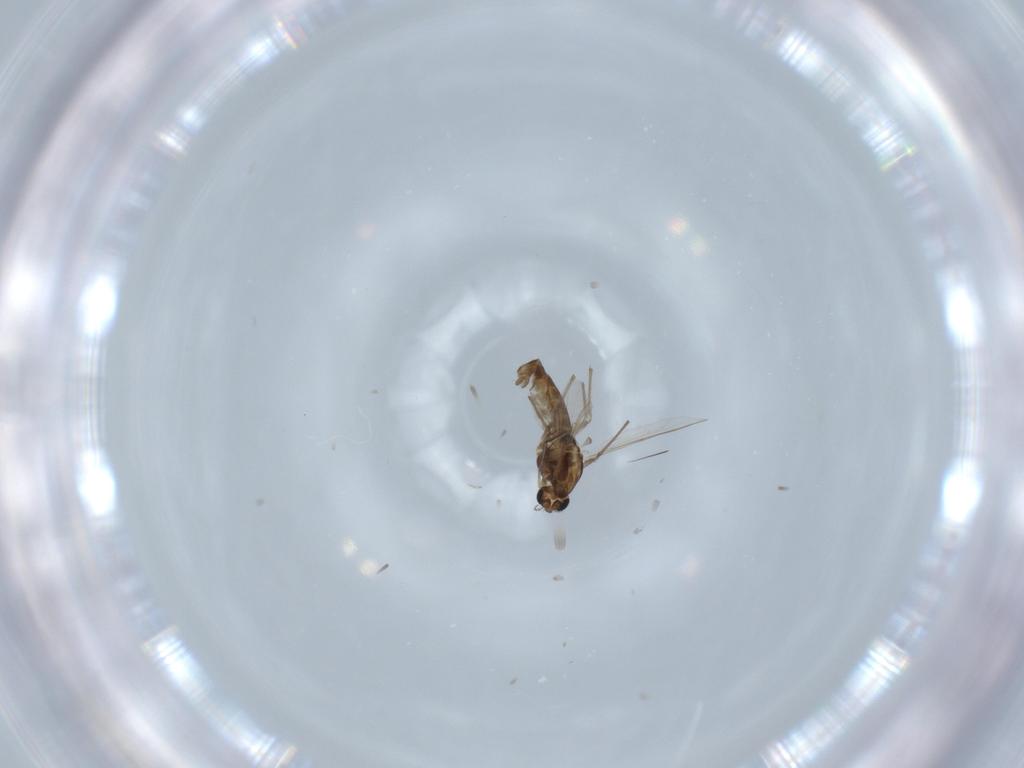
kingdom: Animalia
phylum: Arthropoda
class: Insecta
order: Diptera
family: Chironomidae
